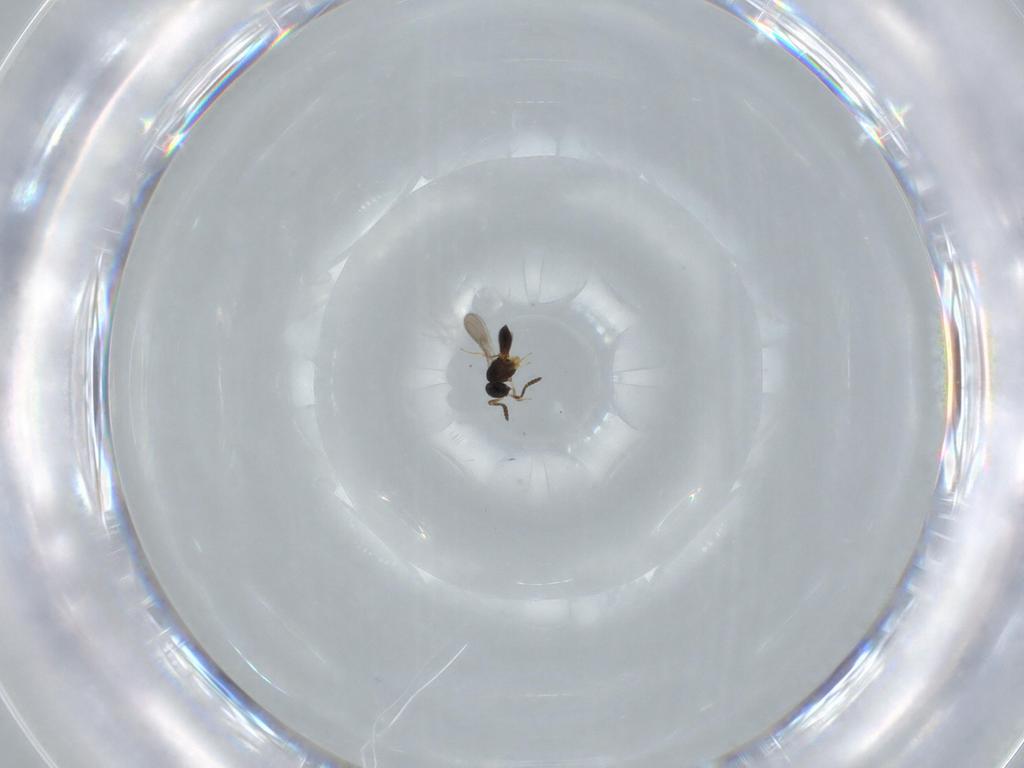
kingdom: Animalia
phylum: Arthropoda
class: Insecta
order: Hymenoptera
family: Scelionidae
